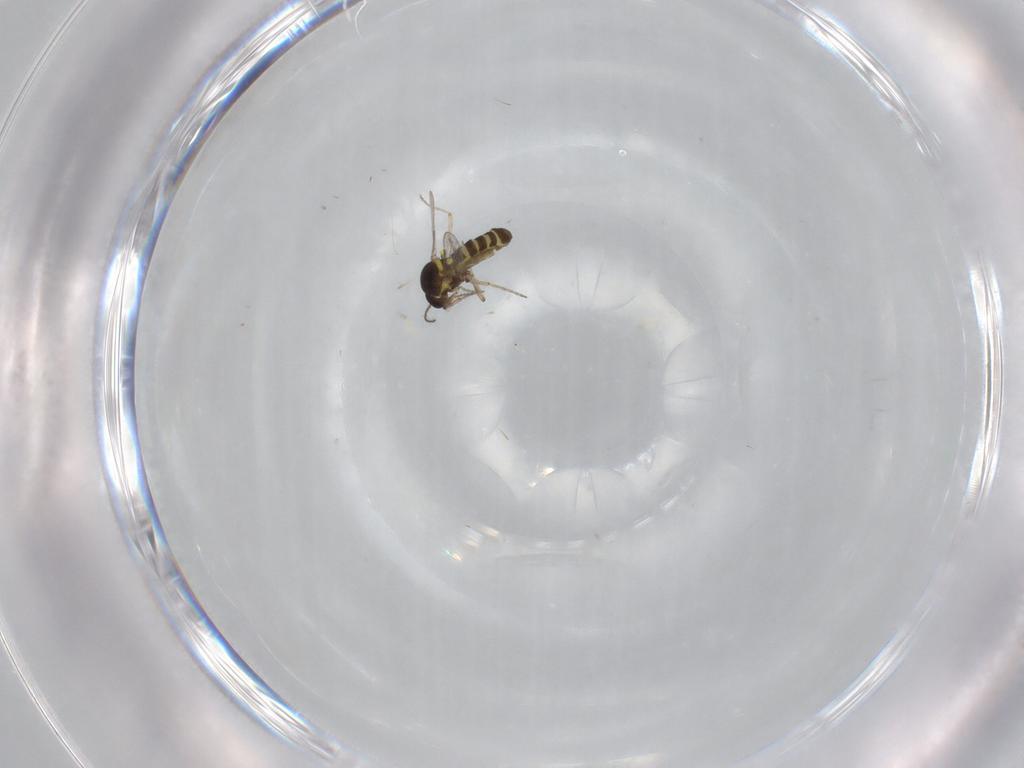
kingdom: Animalia
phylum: Arthropoda
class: Insecta
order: Diptera
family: Ceratopogonidae
